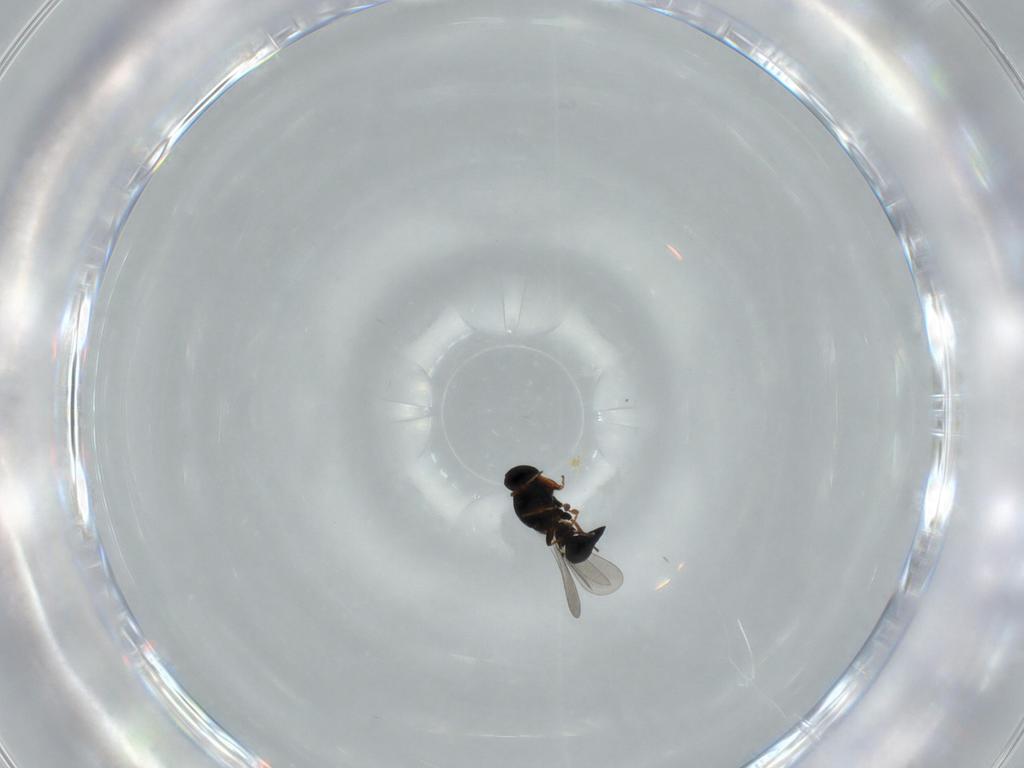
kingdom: Animalia
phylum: Arthropoda
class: Insecta
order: Hymenoptera
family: Platygastridae
